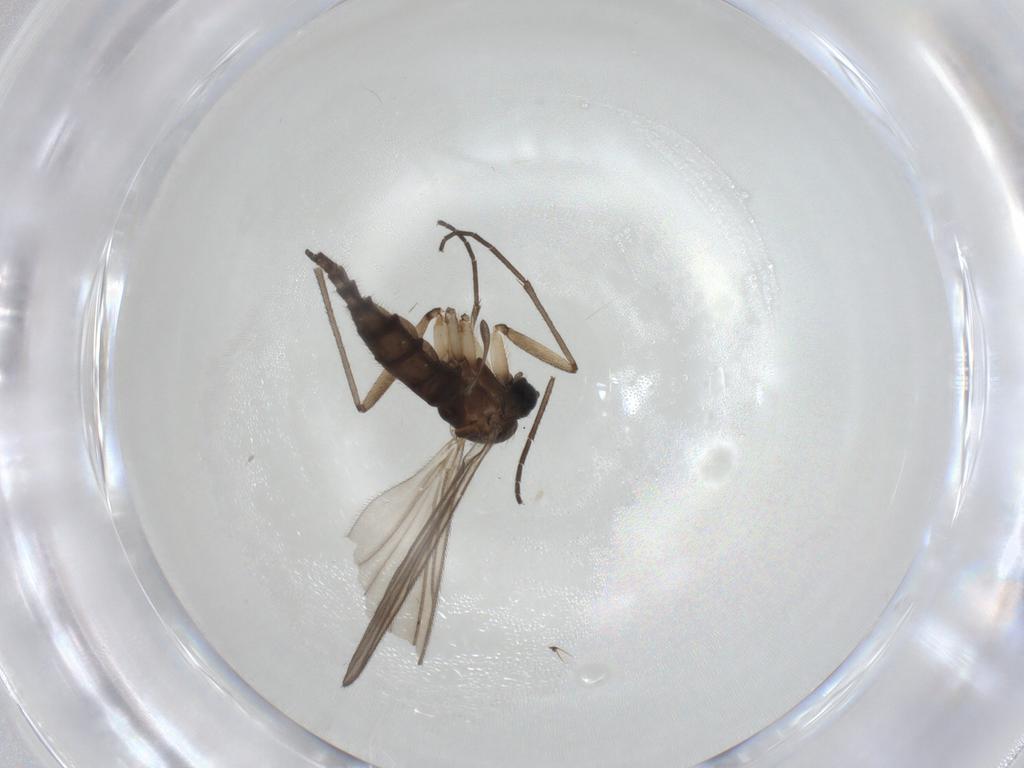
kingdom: Animalia
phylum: Arthropoda
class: Insecta
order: Diptera
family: Sciaridae
